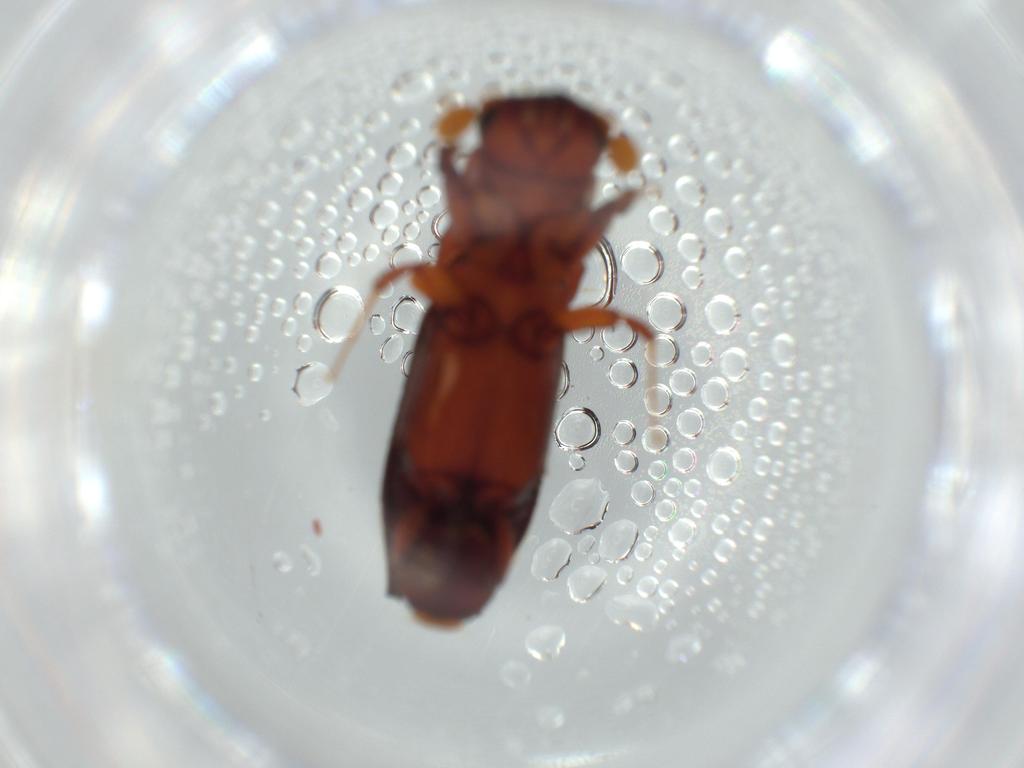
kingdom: Animalia
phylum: Arthropoda
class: Insecta
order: Coleoptera
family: Curculionidae
